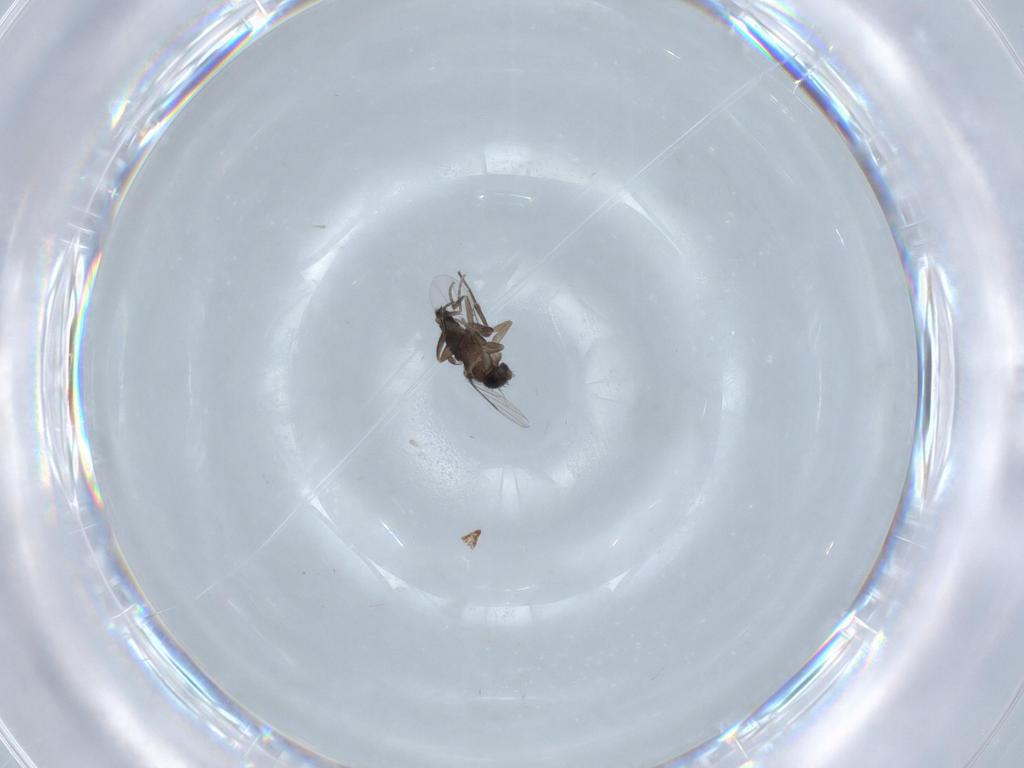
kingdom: Animalia
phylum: Arthropoda
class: Insecta
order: Diptera
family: Phoridae
